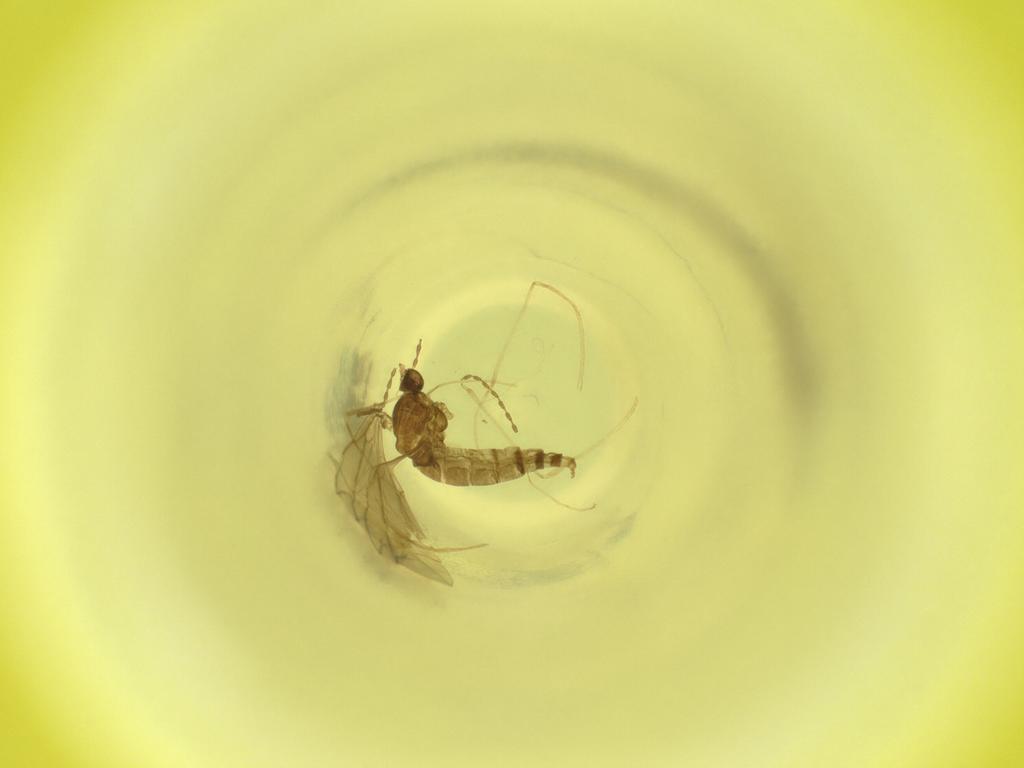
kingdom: Animalia
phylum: Arthropoda
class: Insecta
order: Diptera
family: Cecidomyiidae
